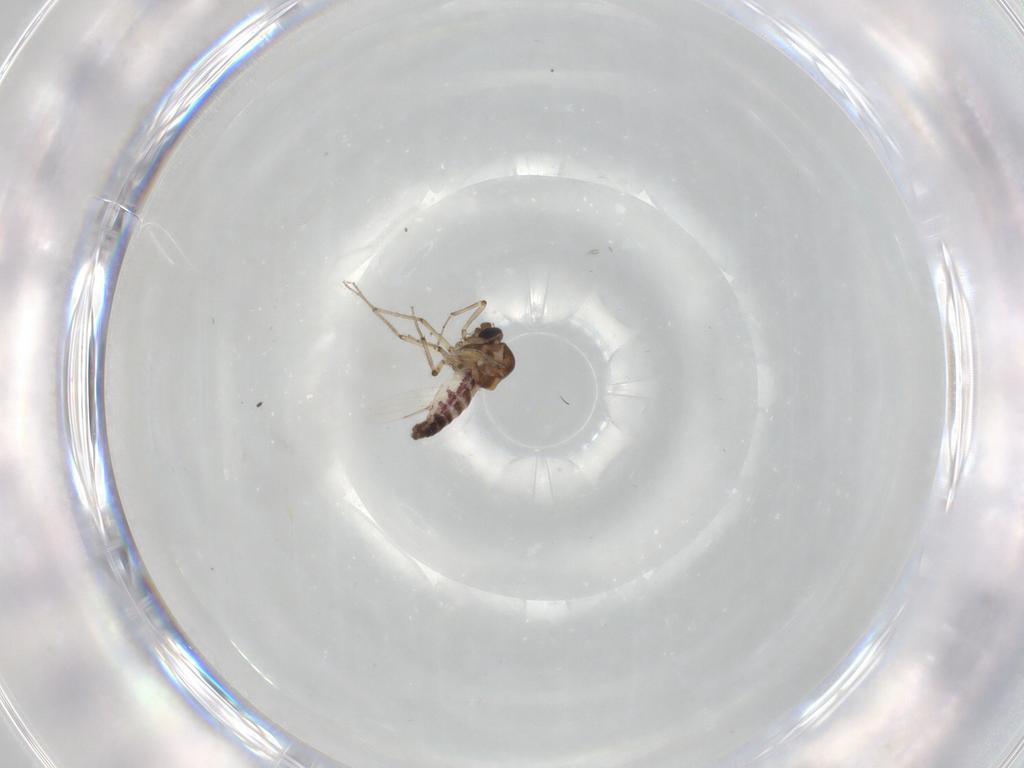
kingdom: Animalia
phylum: Arthropoda
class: Insecta
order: Diptera
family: Ceratopogonidae
